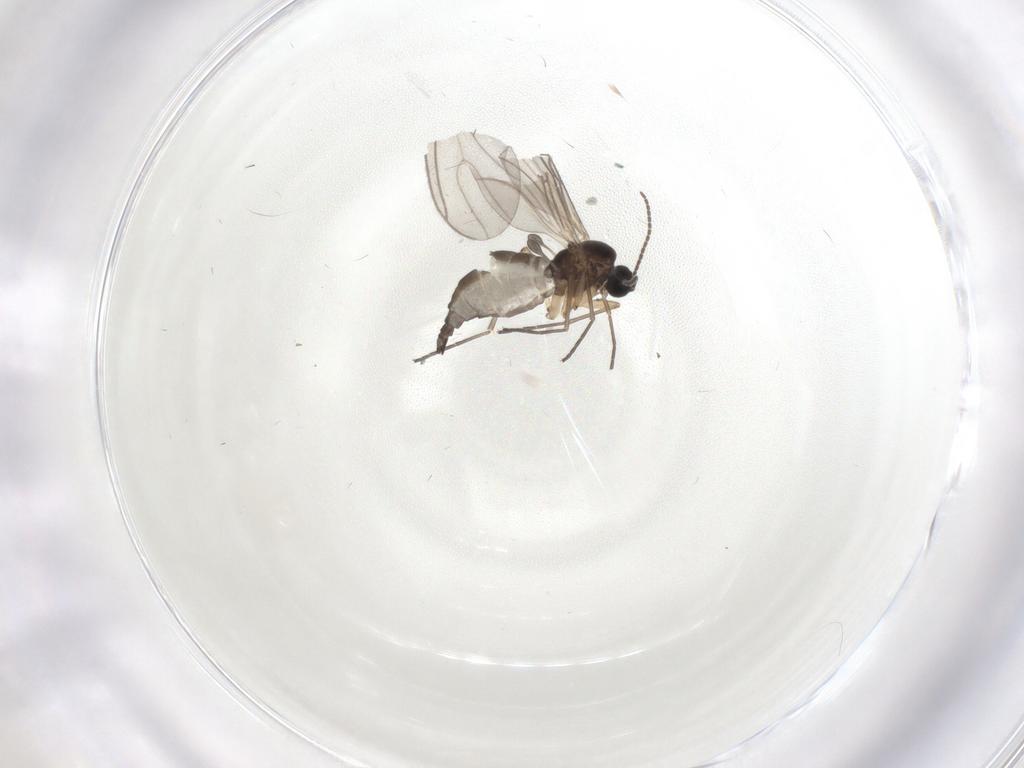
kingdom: Animalia
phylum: Arthropoda
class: Insecta
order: Diptera
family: Sciaridae
